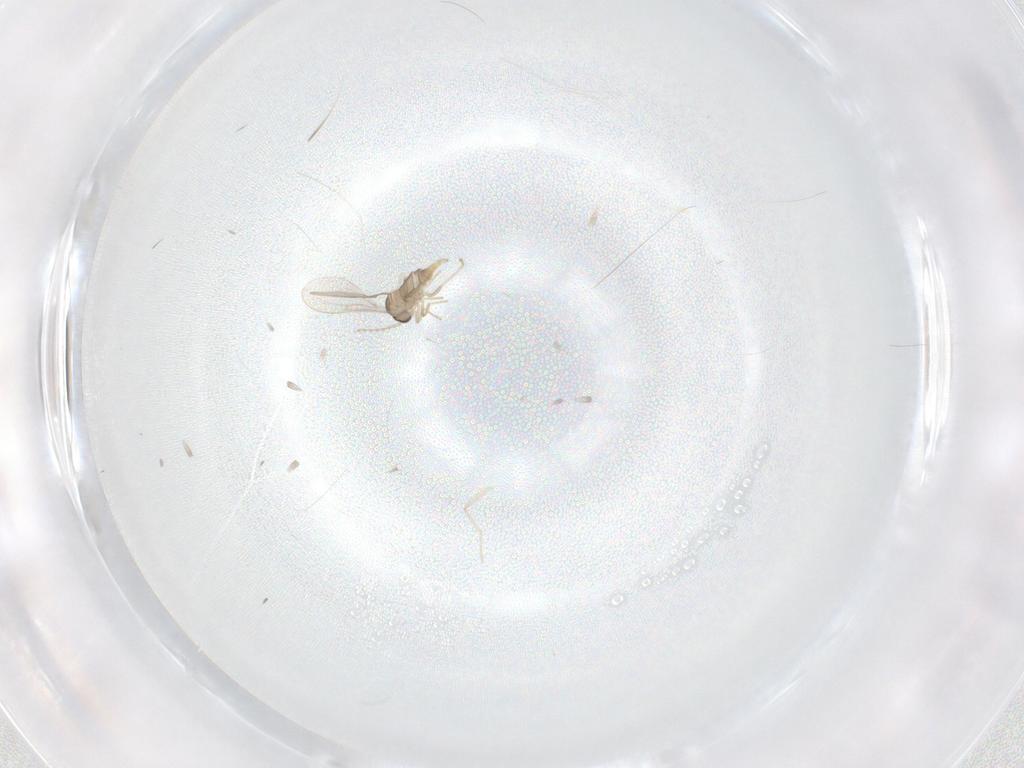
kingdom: Animalia
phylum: Arthropoda
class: Insecta
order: Diptera
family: Cecidomyiidae
